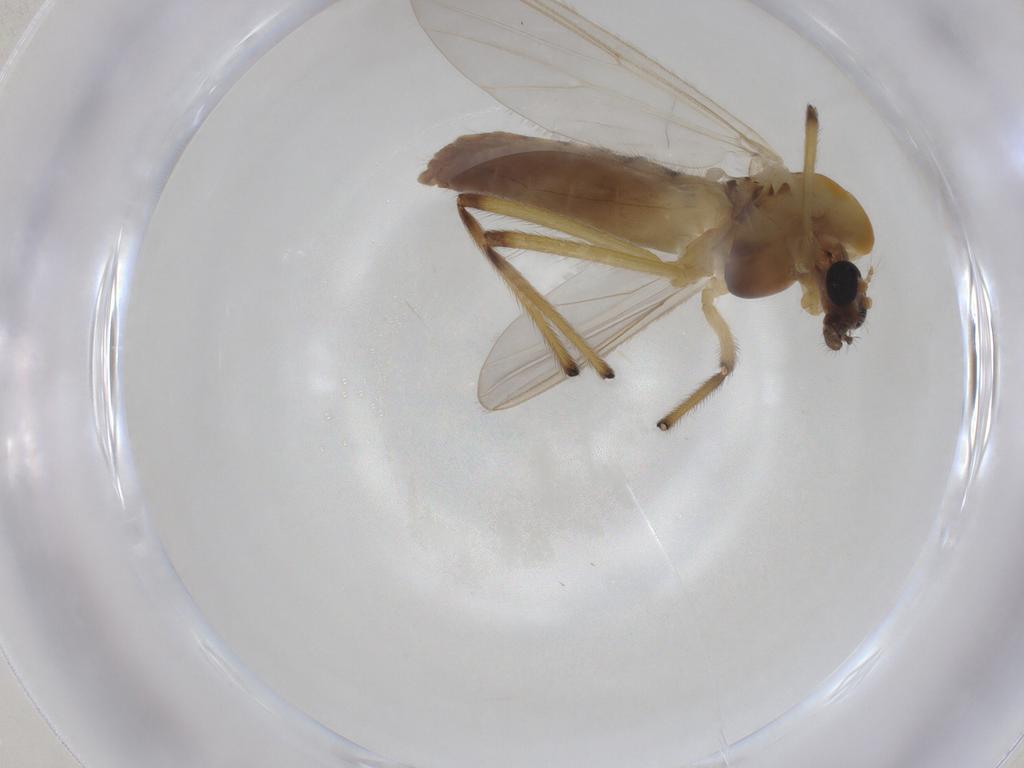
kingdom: Animalia
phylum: Arthropoda
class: Insecta
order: Diptera
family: Chironomidae
